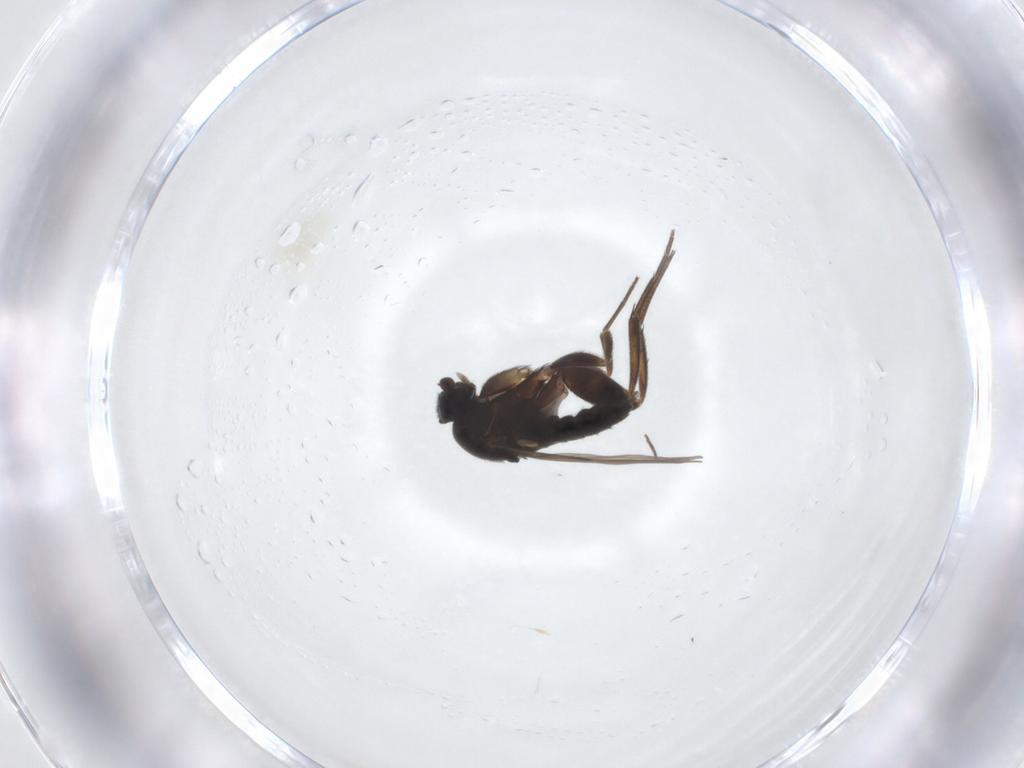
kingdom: Animalia
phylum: Arthropoda
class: Insecta
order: Diptera
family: Phoridae
